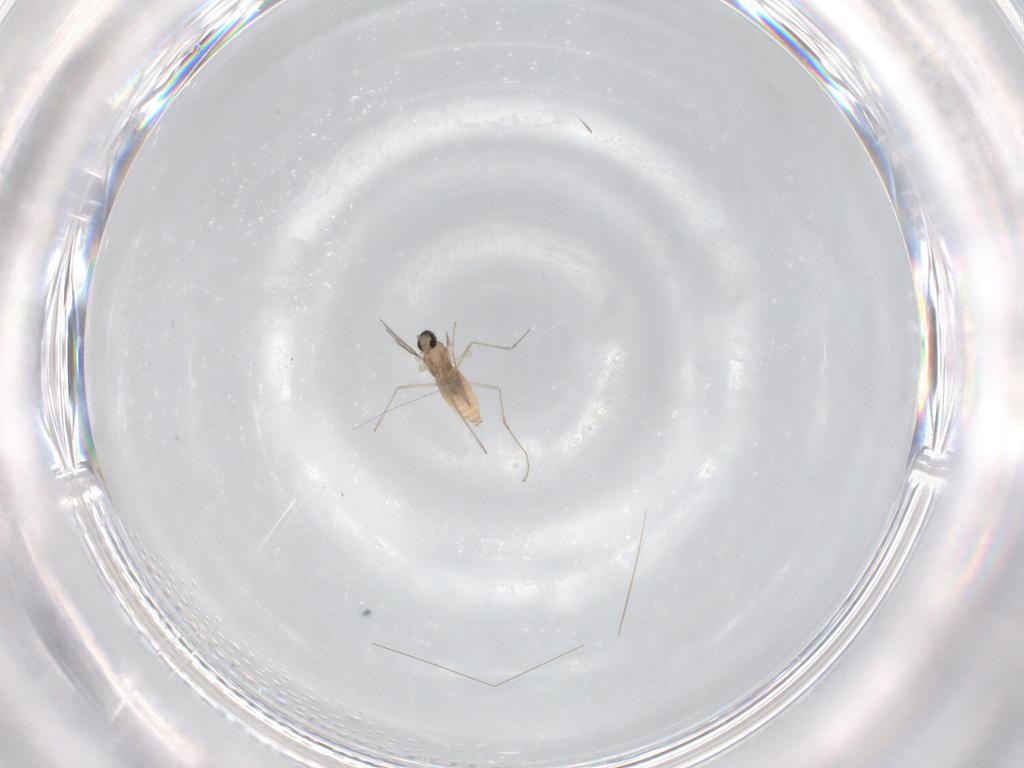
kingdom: Animalia
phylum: Arthropoda
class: Insecta
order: Diptera
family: Cecidomyiidae
